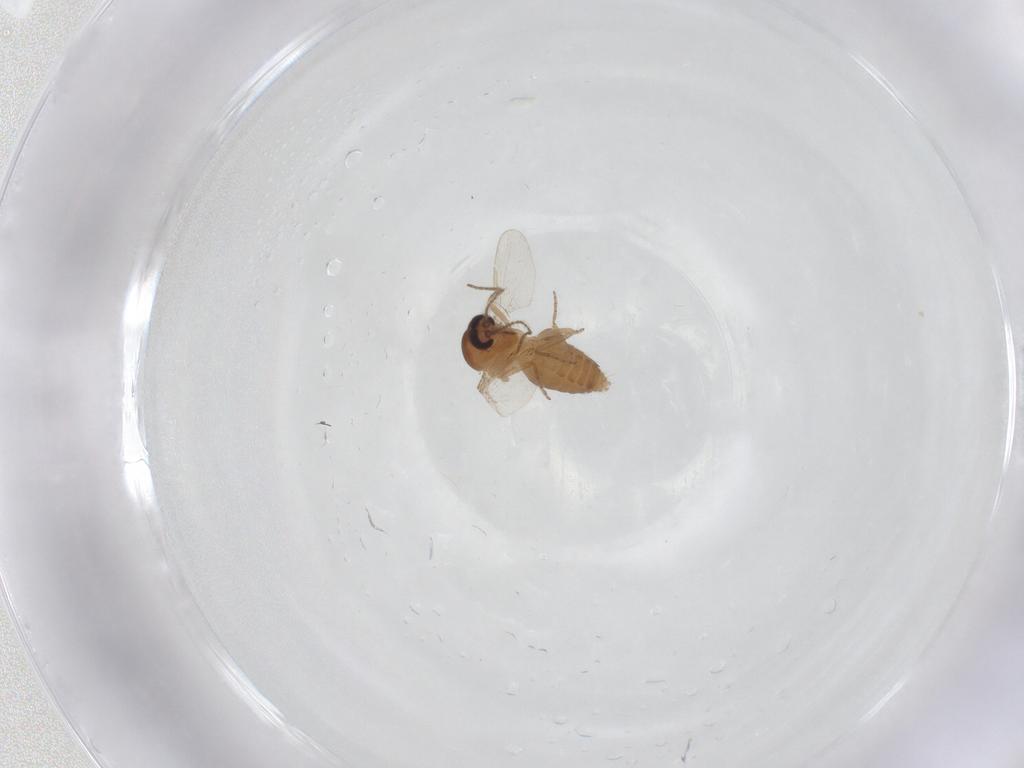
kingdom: Animalia
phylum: Arthropoda
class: Insecta
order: Diptera
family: Ceratopogonidae
